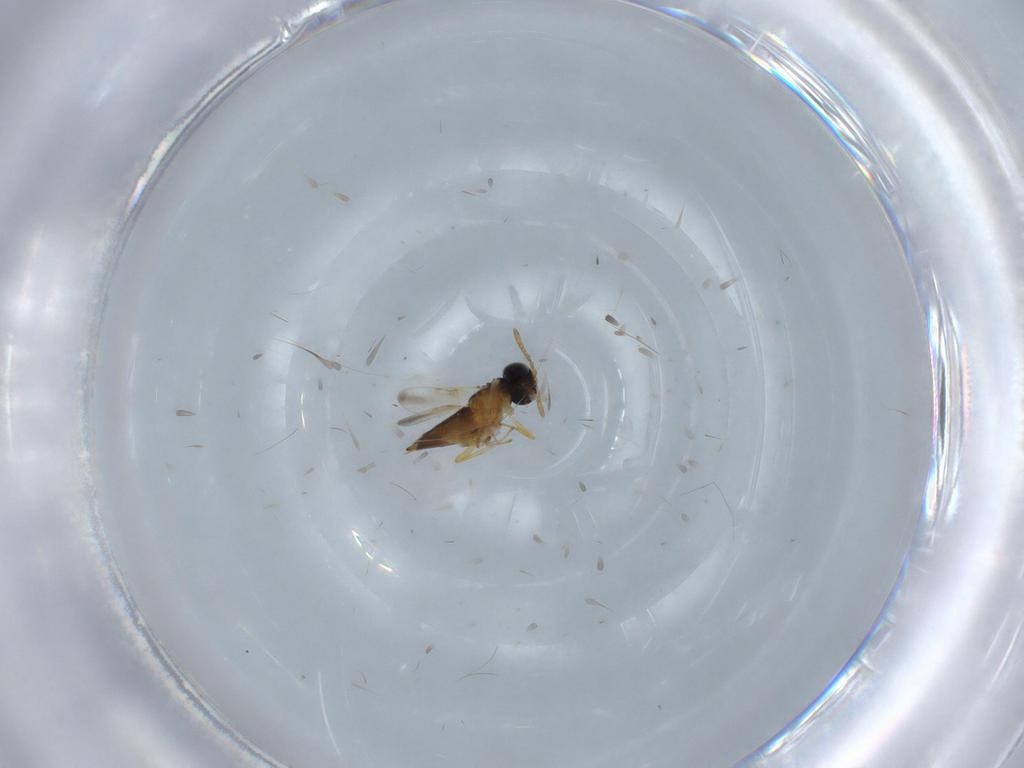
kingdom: Animalia
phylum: Arthropoda
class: Insecta
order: Hymenoptera
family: Encyrtidae
